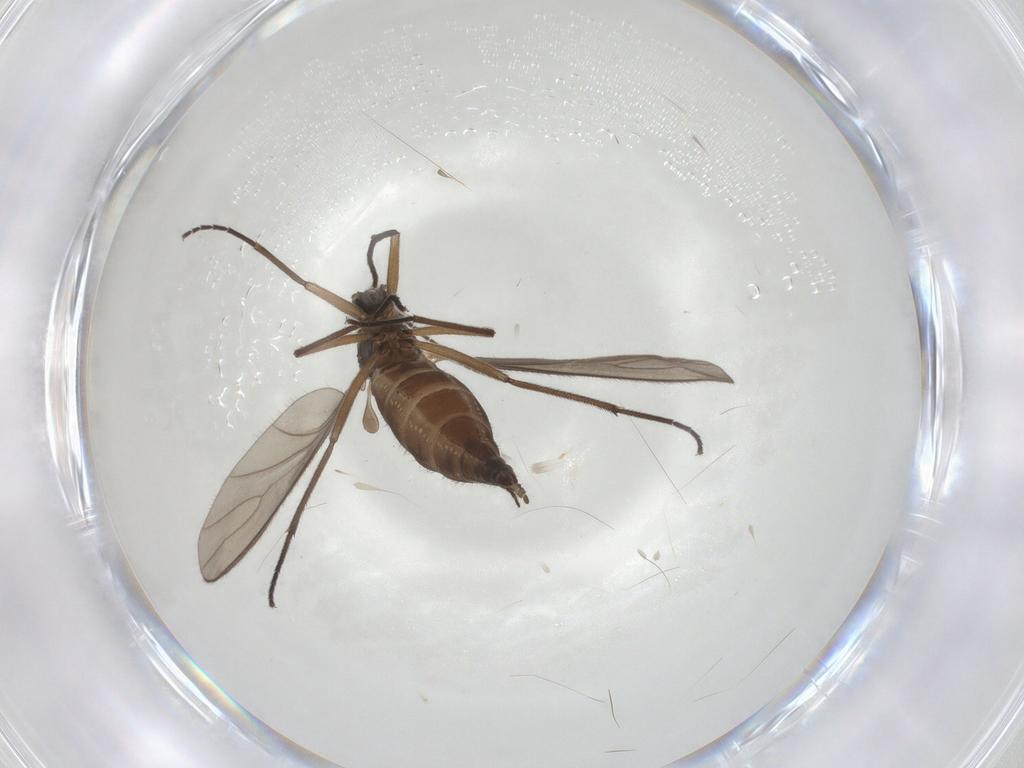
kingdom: Animalia
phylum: Arthropoda
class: Insecta
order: Diptera
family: Sciaridae
